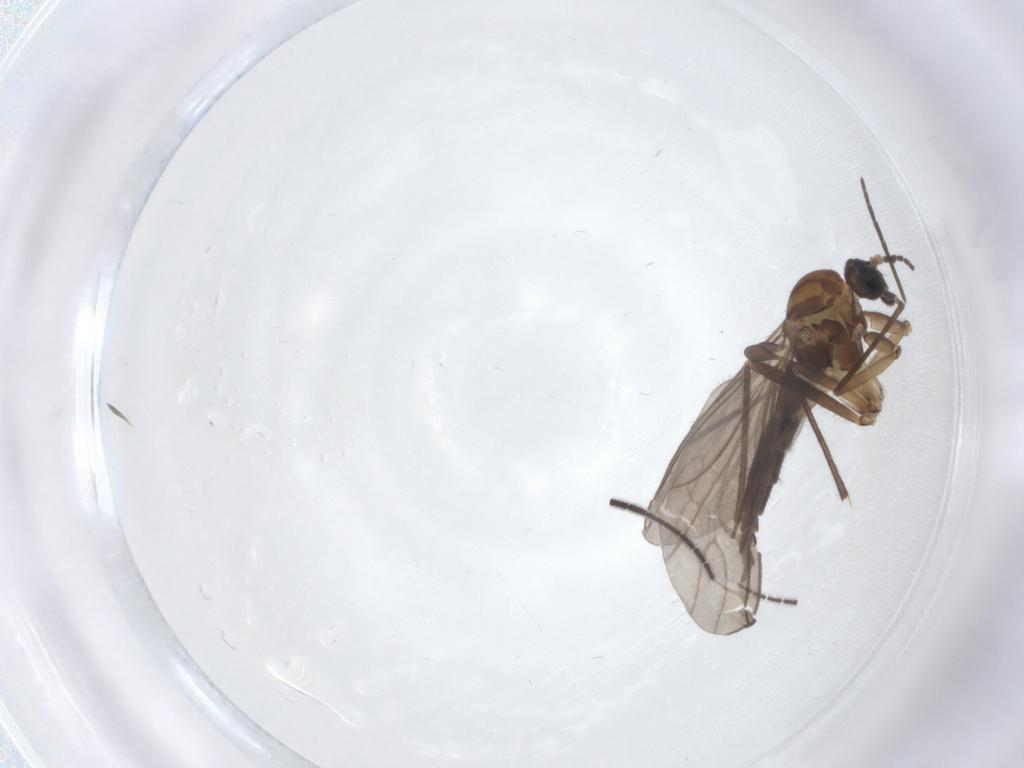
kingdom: Animalia
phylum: Arthropoda
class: Insecta
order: Diptera
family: Sciaridae
